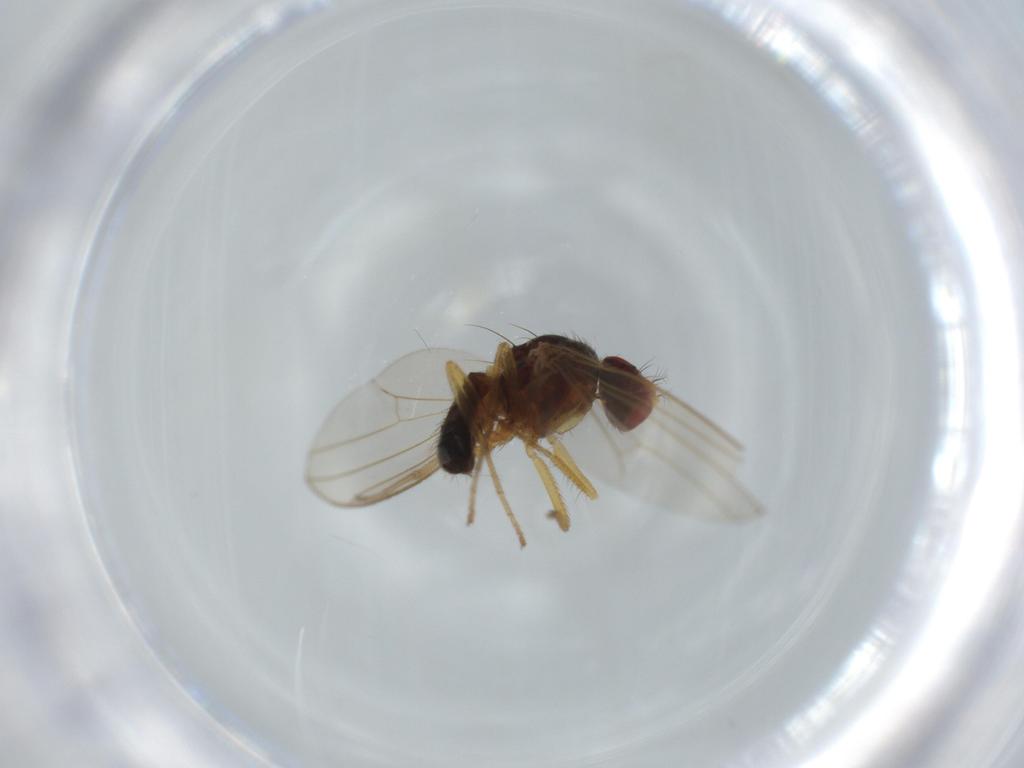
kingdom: Animalia
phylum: Arthropoda
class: Insecta
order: Diptera
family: Drosophilidae
